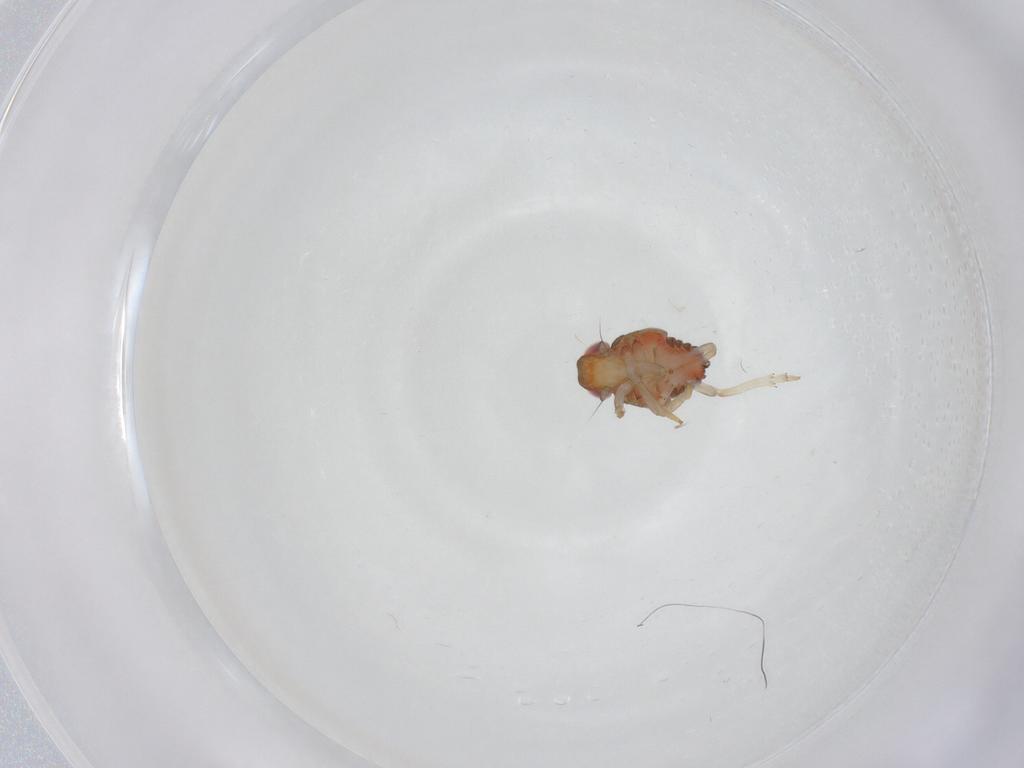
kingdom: Animalia
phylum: Arthropoda
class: Insecta
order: Hemiptera
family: Issidae
